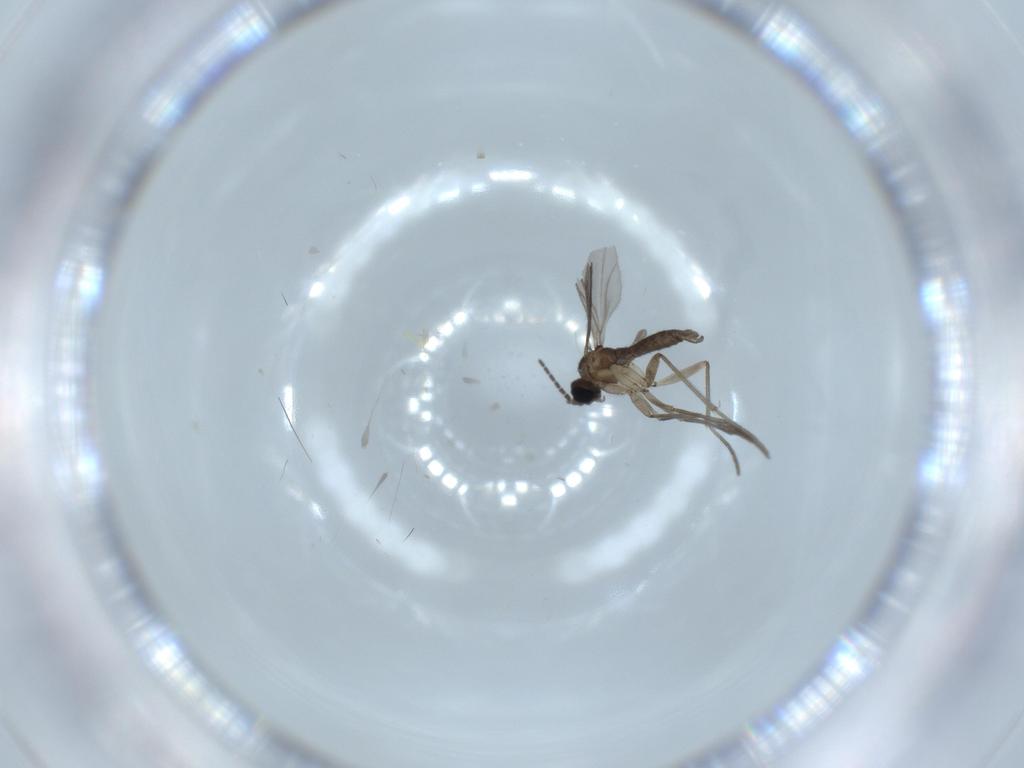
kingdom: Animalia
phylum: Arthropoda
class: Insecta
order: Diptera
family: Sciaridae
